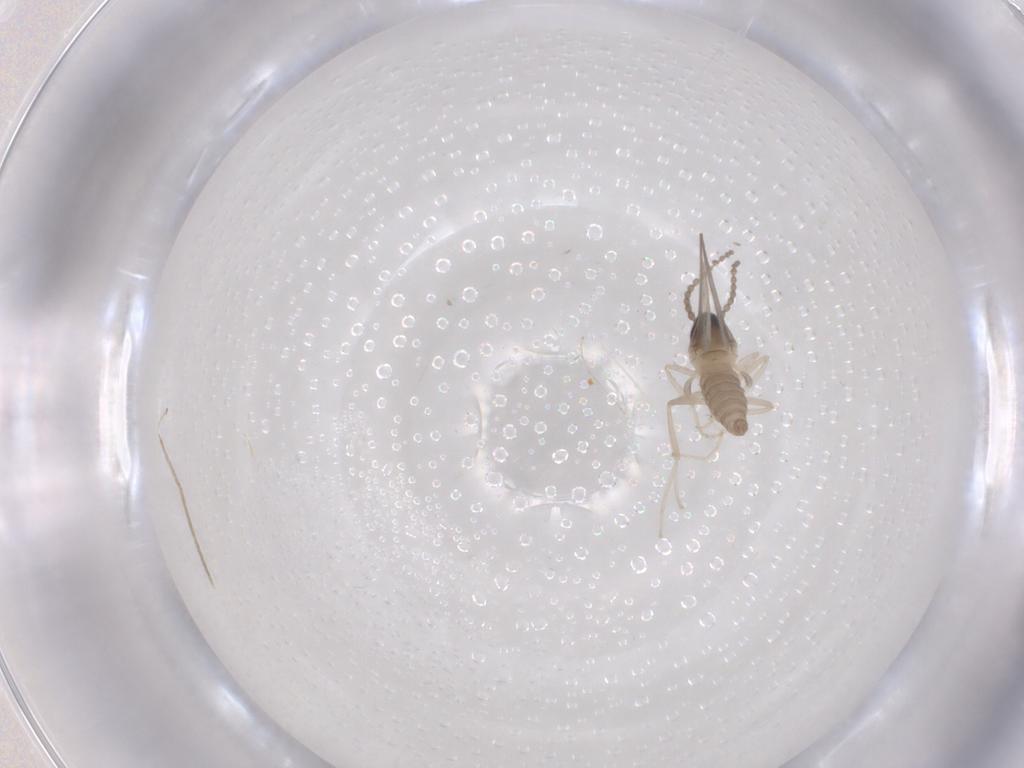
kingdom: Animalia
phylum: Arthropoda
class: Insecta
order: Diptera
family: Cecidomyiidae
